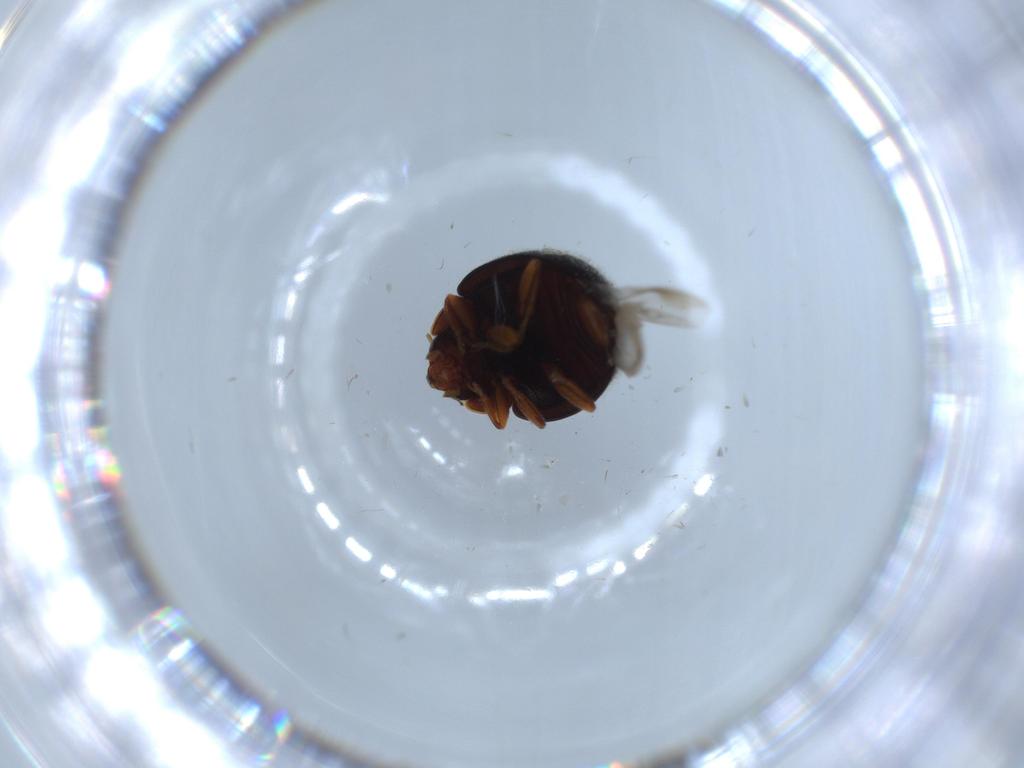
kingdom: Animalia
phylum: Arthropoda
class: Insecta
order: Coleoptera
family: Coccinellidae
